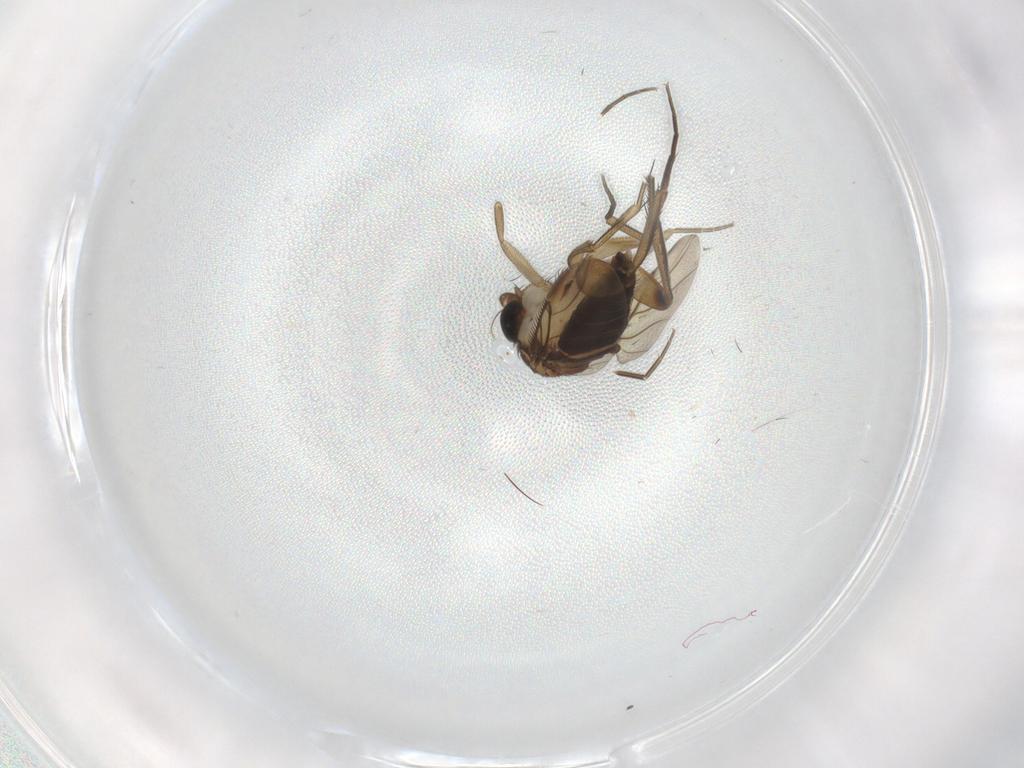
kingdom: Animalia
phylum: Arthropoda
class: Insecta
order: Diptera
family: Phoridae
